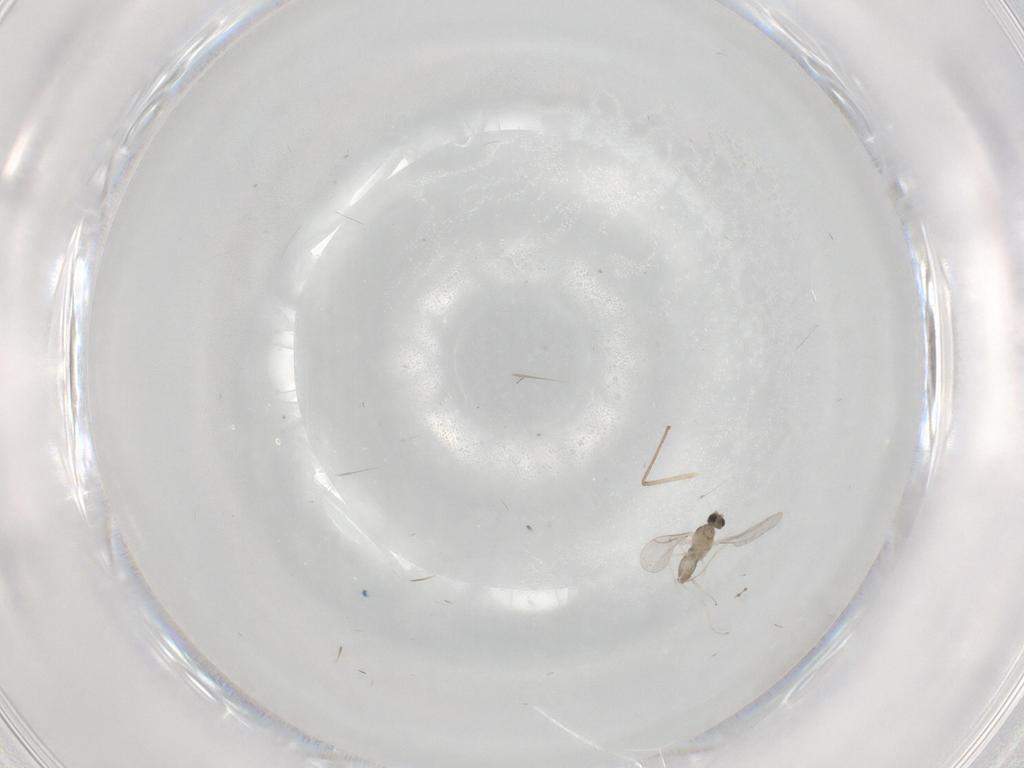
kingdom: Animalia
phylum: Arthropoda
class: Insecta
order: Diptera
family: Cecidomyiidae
